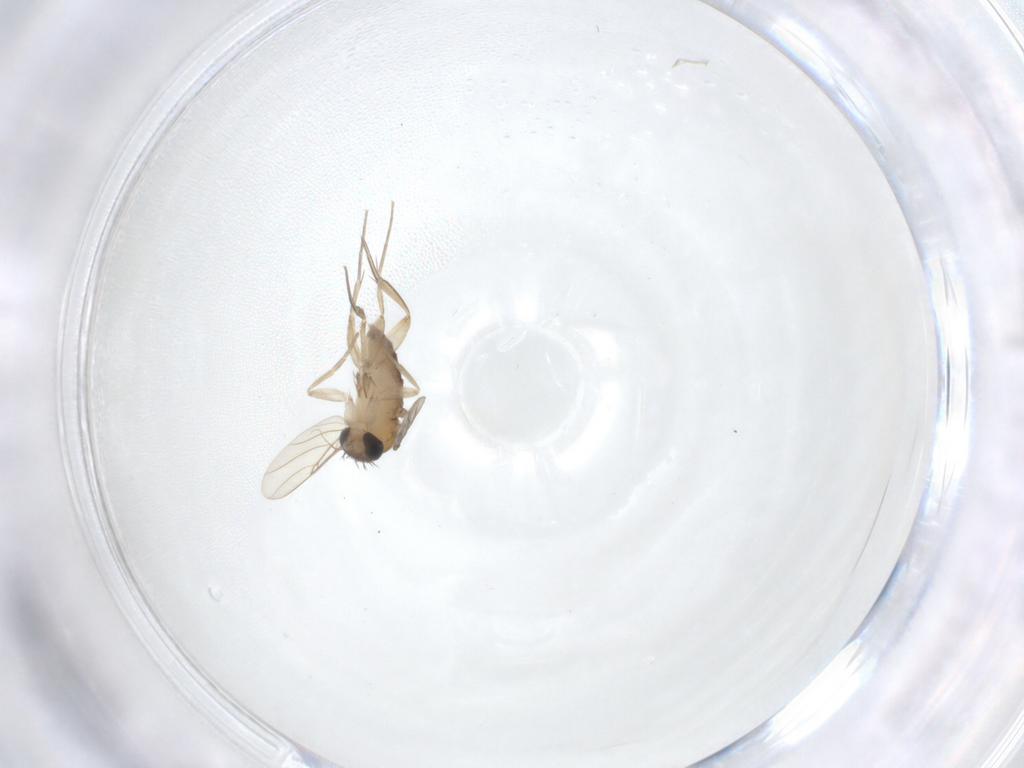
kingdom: Animalia
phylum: Arthropoda
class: Insecta
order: Diptera
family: Phoridae
